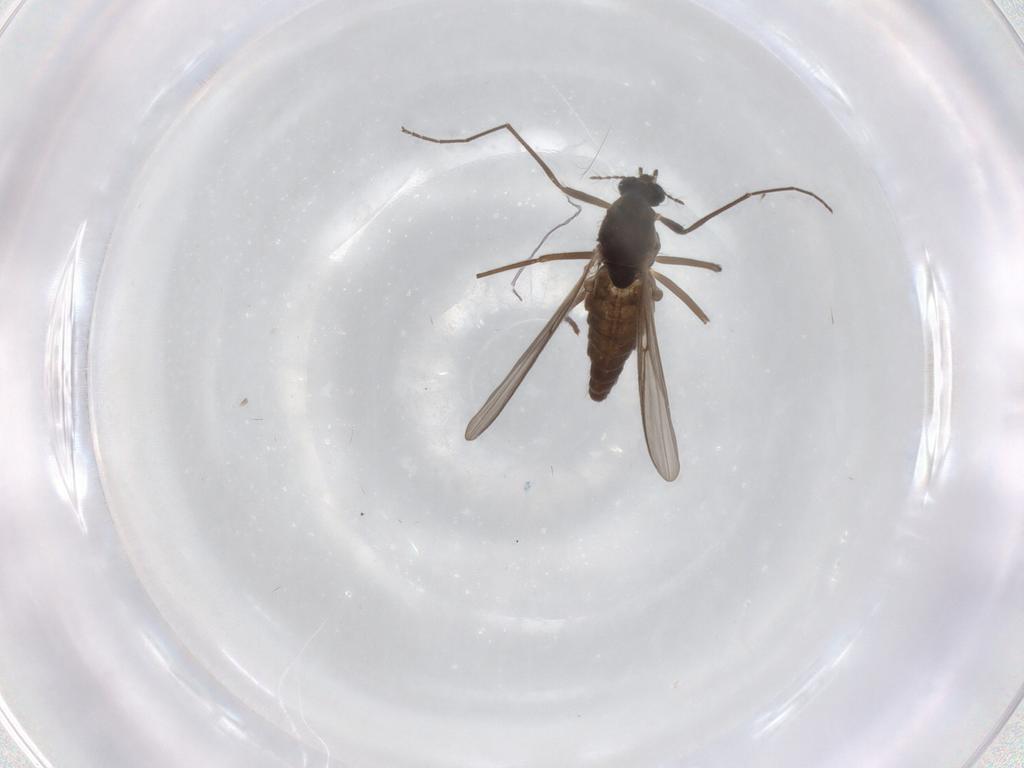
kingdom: Animalia
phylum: Arthropoda
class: Insecta
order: Diptera
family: Chironomidae
